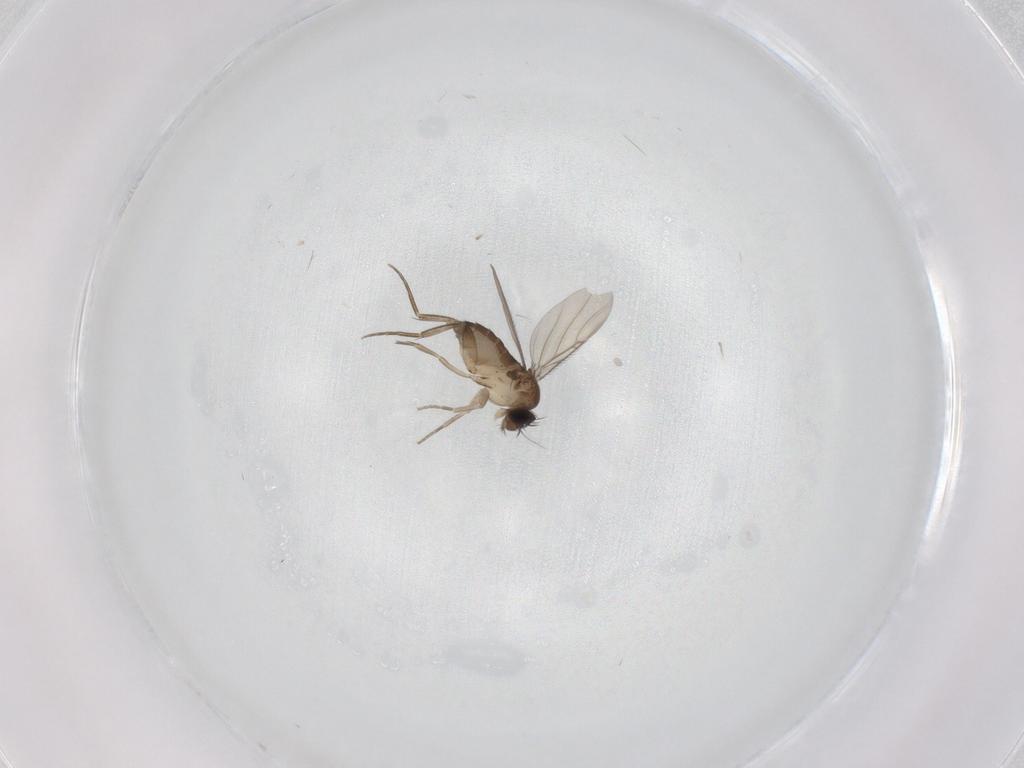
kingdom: Animalia
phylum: Arthropoda
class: Insecta
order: Diptera
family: Phoridae
